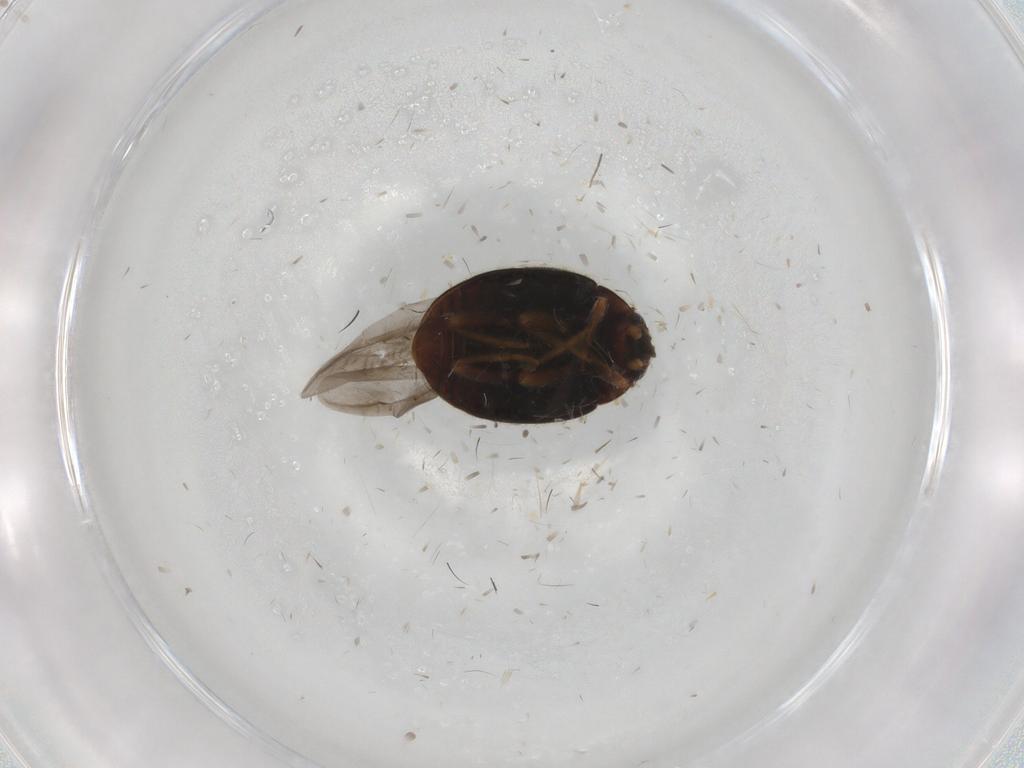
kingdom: Animalia
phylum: Arthropoda
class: Insecta
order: Coleoptera
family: Coccinellidae
